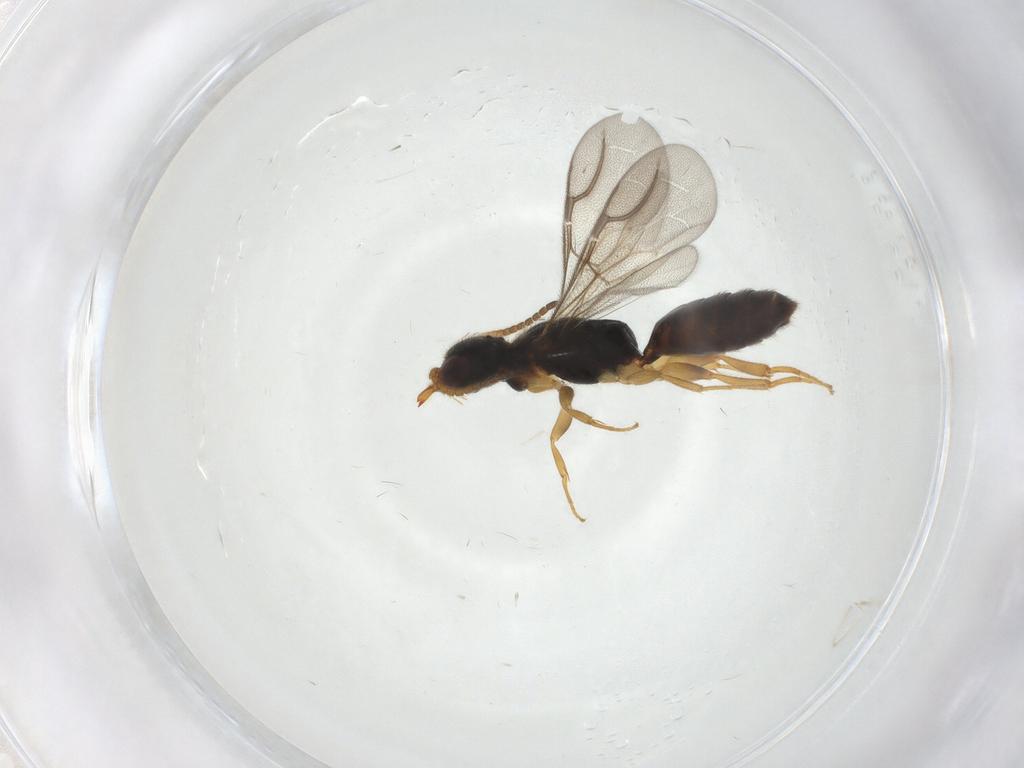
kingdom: Animalia
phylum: Arthropoda
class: Insecta
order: Hymenoptera
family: Bethylidae
